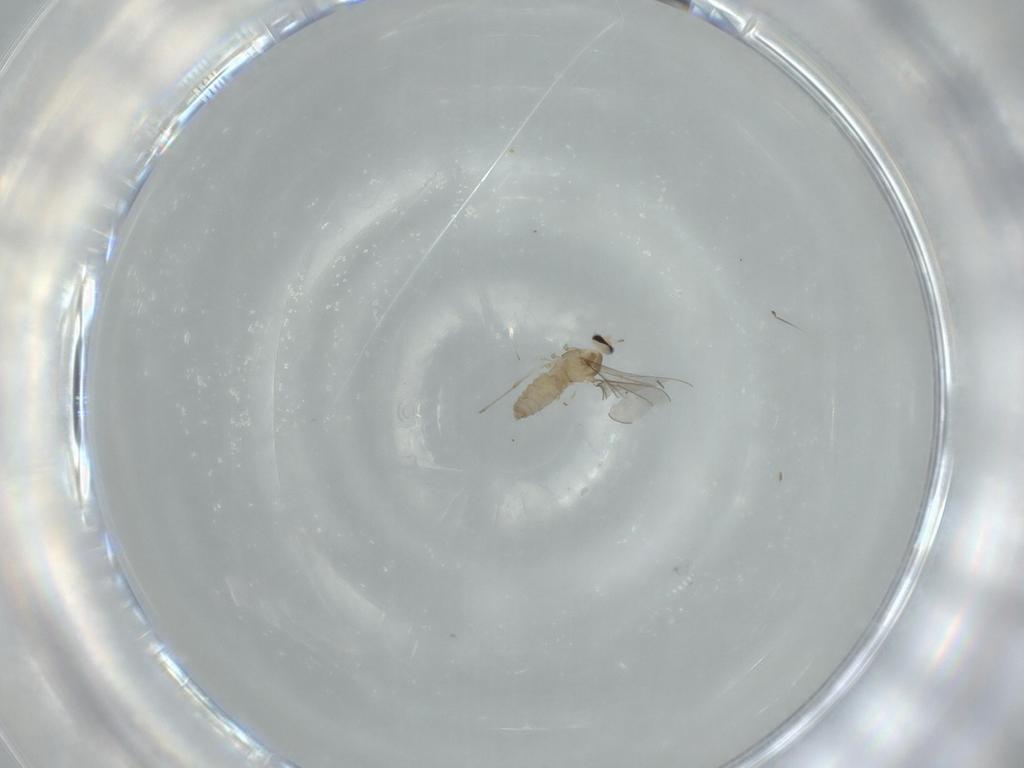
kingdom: Animalia
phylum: Arthropoda
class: Insecta
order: Diptera
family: Cecidomyiidae
